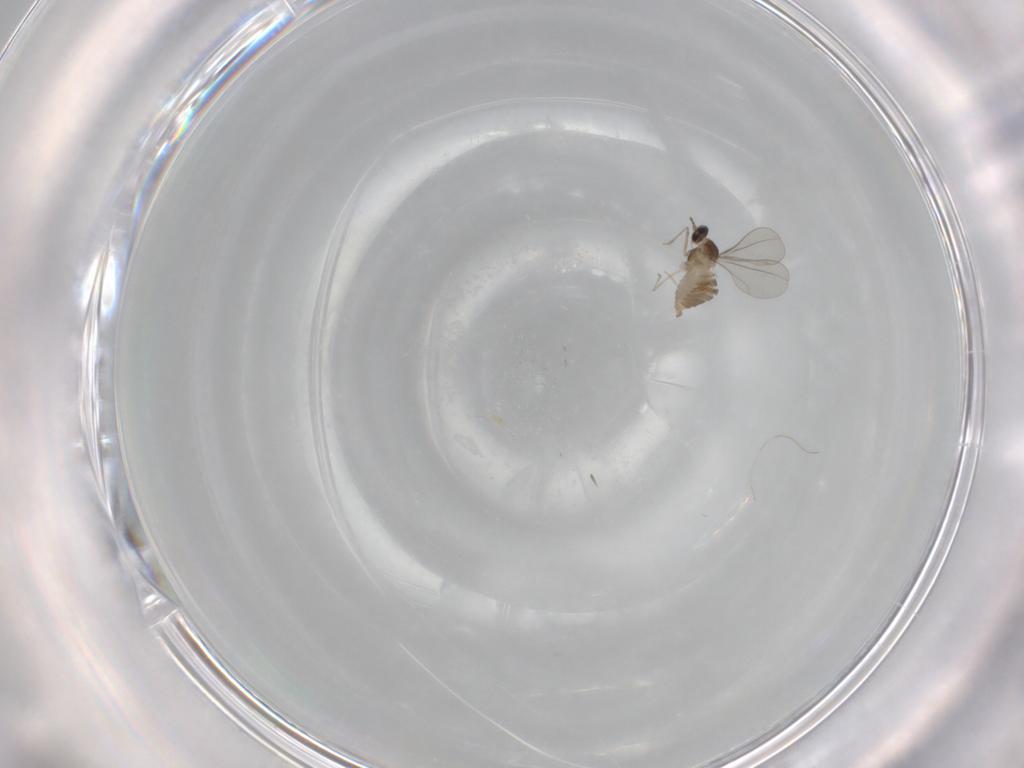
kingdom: Animalia
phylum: Arthropoda
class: Insecta
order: Diptera
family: Cecidomyiidae
